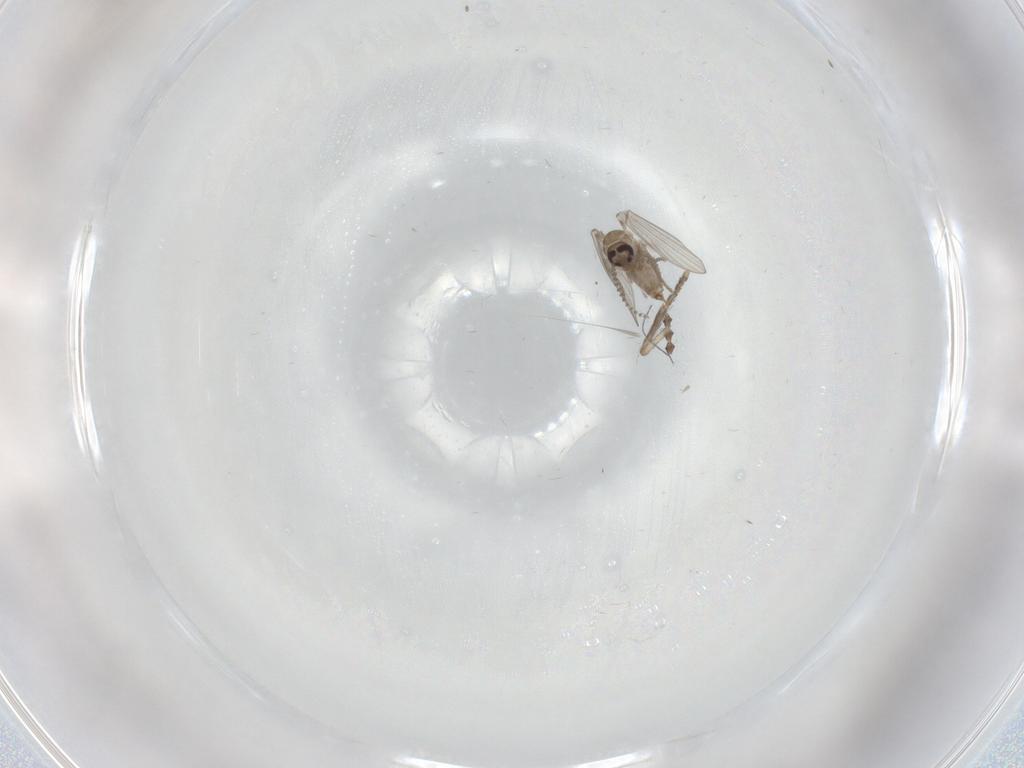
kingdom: Animalia
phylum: Arthropoda
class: Insecta
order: Diptera
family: Psychodidae
